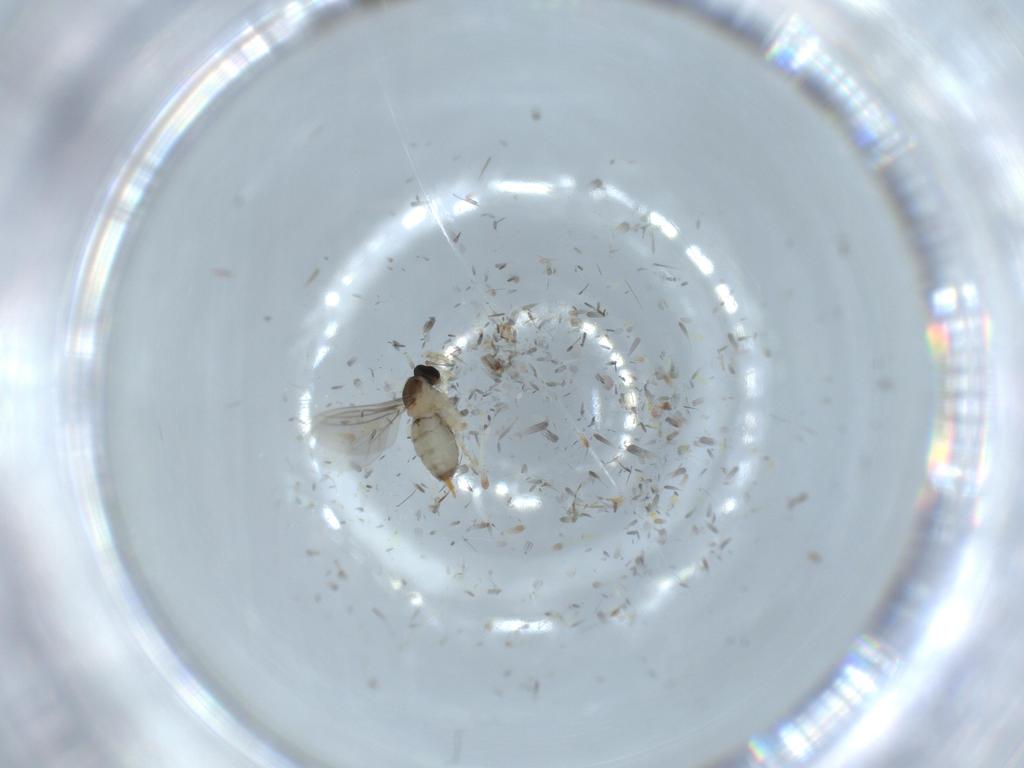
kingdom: Animalia
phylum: Arthropoda
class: Insecta
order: Diptera
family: Cecidomyiidae
